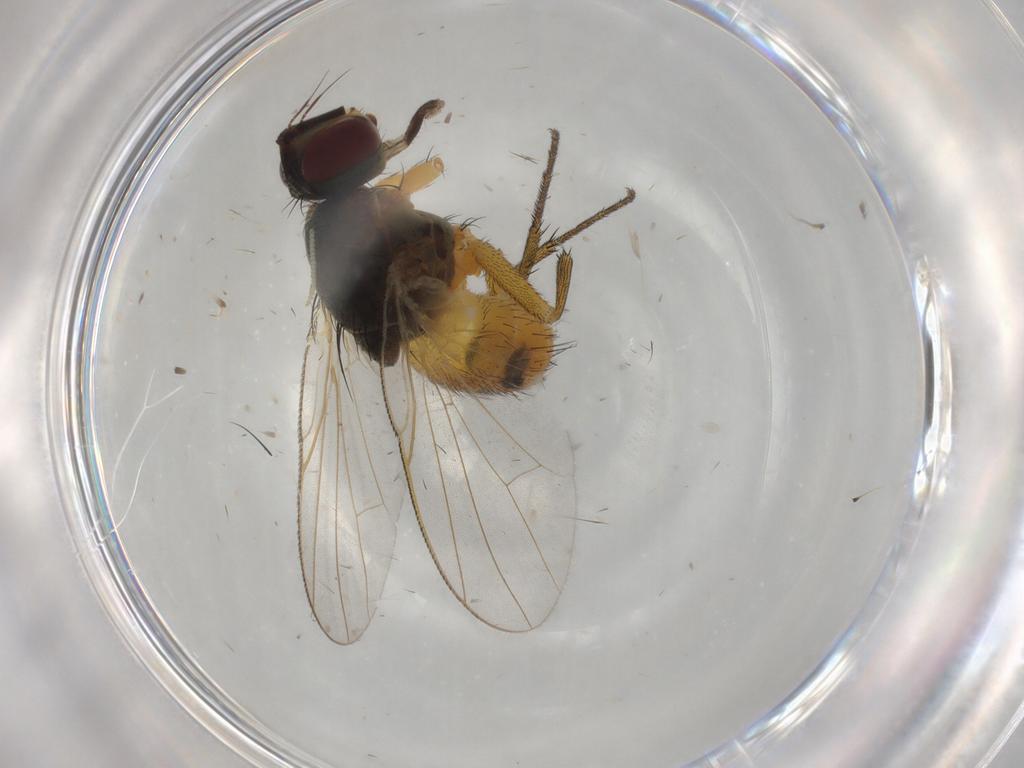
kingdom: Animalia
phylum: Arthropoda
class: Insecta
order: Diptera
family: Muscidae
